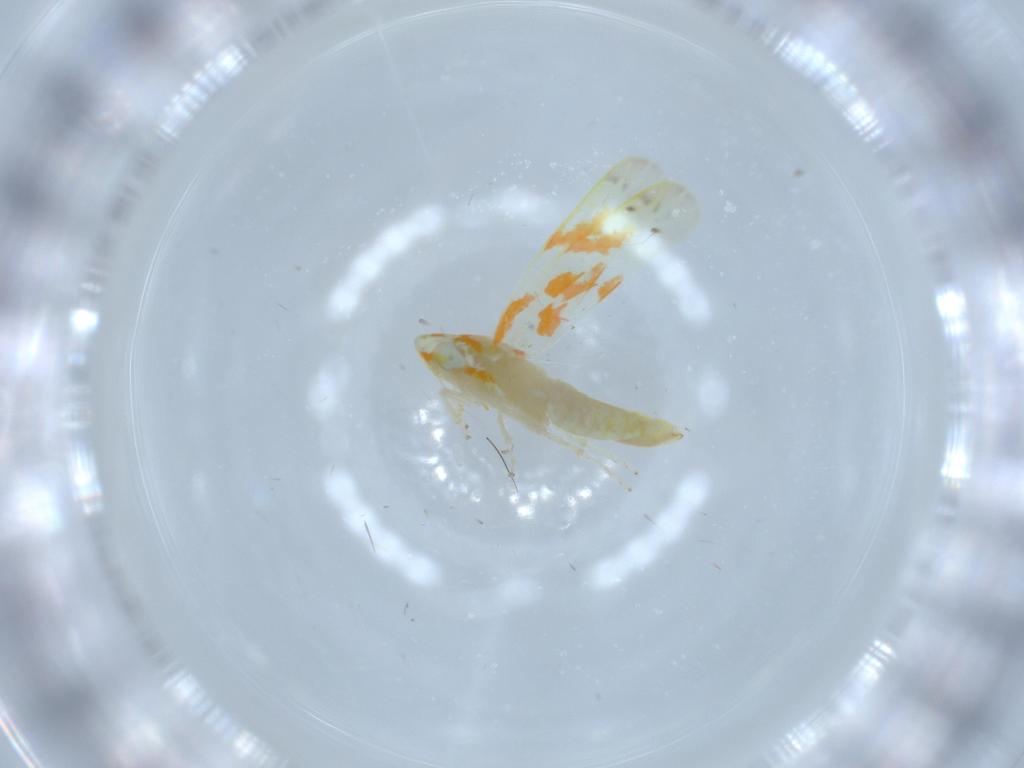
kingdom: Animalia
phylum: Arthropoda
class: Insecta
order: Hemiptera
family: Cicadellidae
